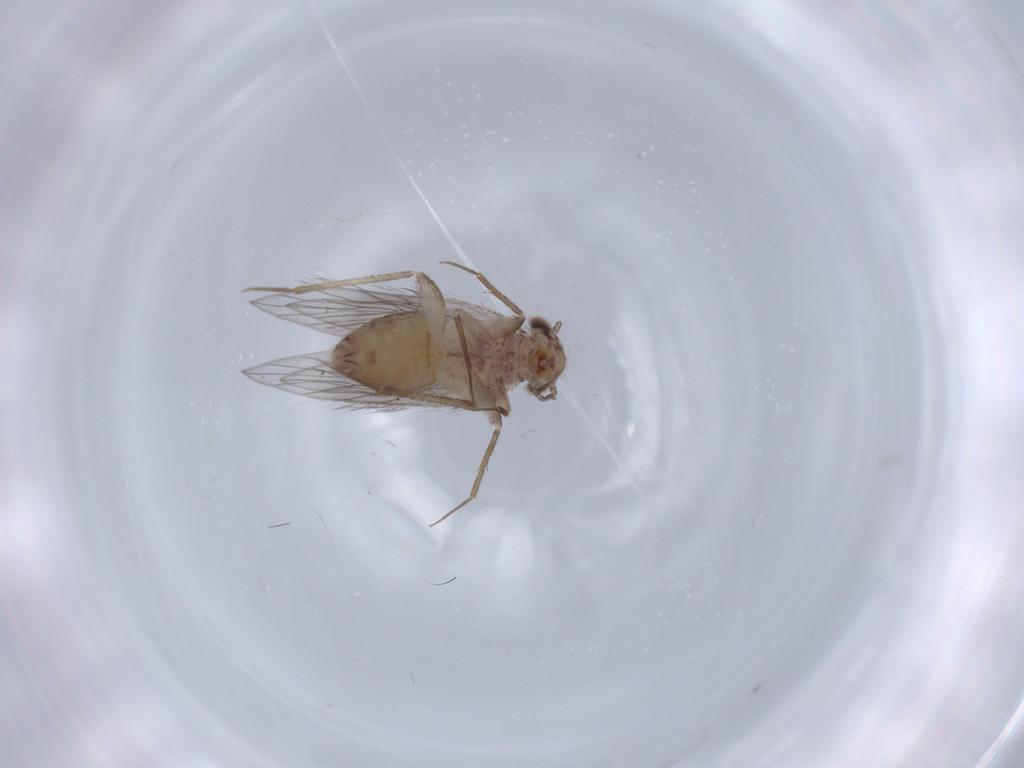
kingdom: Animalia
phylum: Arthropoda
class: Insecta
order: Psocodea
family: Lepidopsocidae
